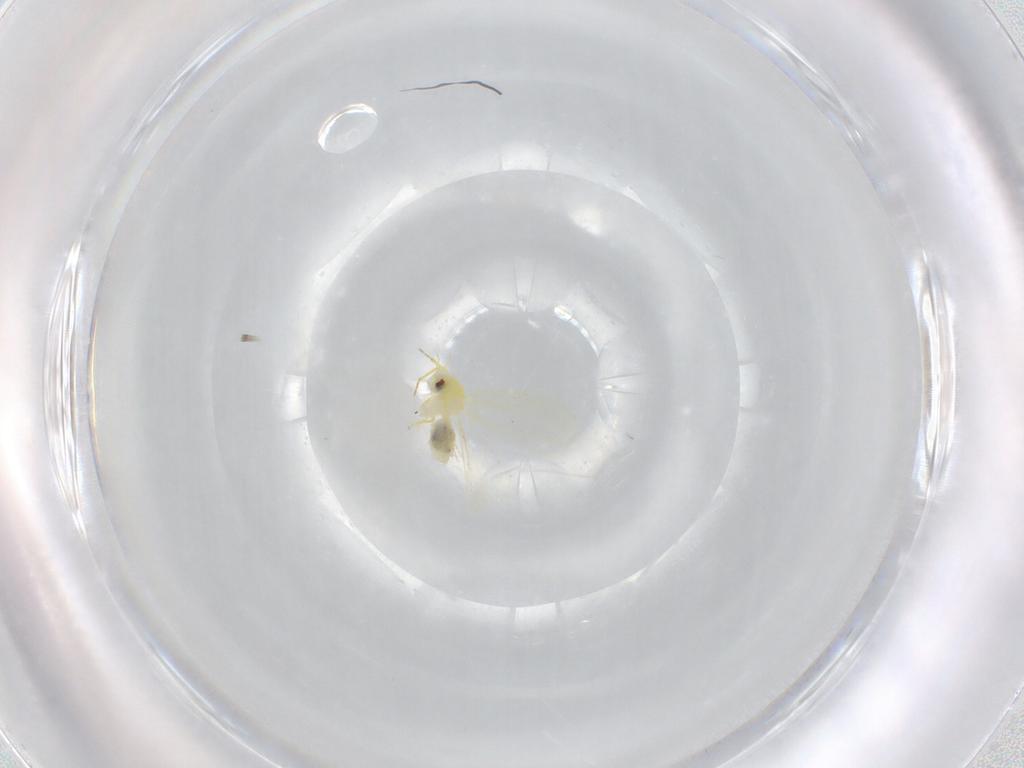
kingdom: Animalia
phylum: Arthropoda
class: Insecta
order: Hemiptera
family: Aleyrodidae
